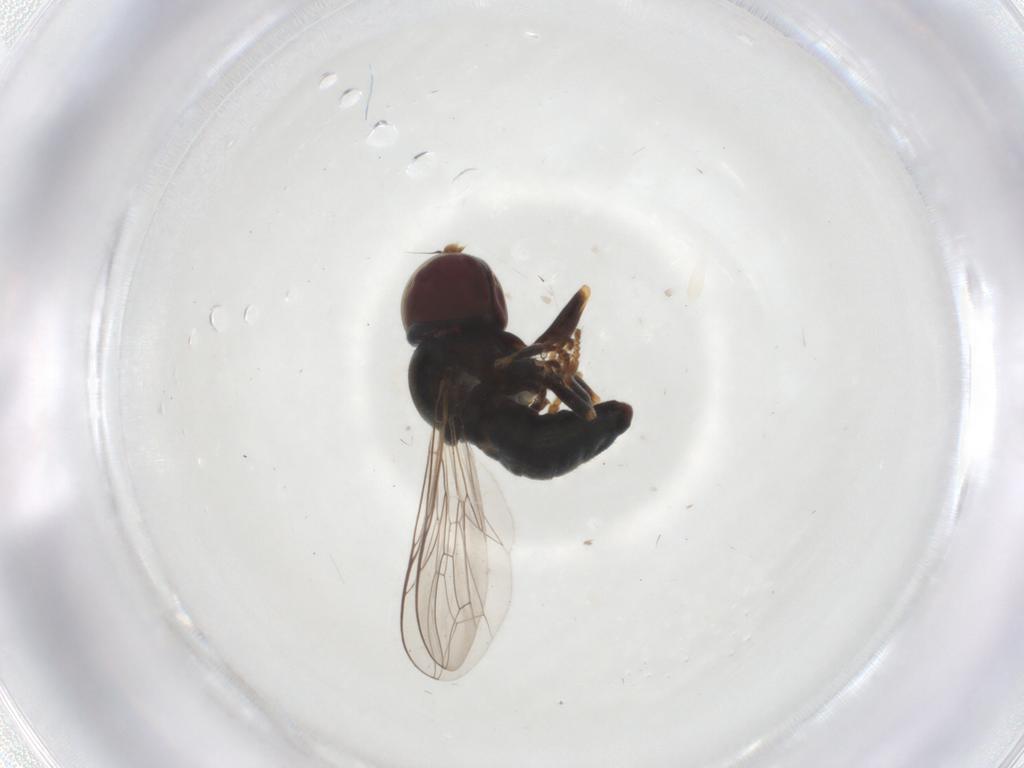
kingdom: Animalia
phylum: Arthropoda
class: Insecta
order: Diptera
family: Pipunculidae
